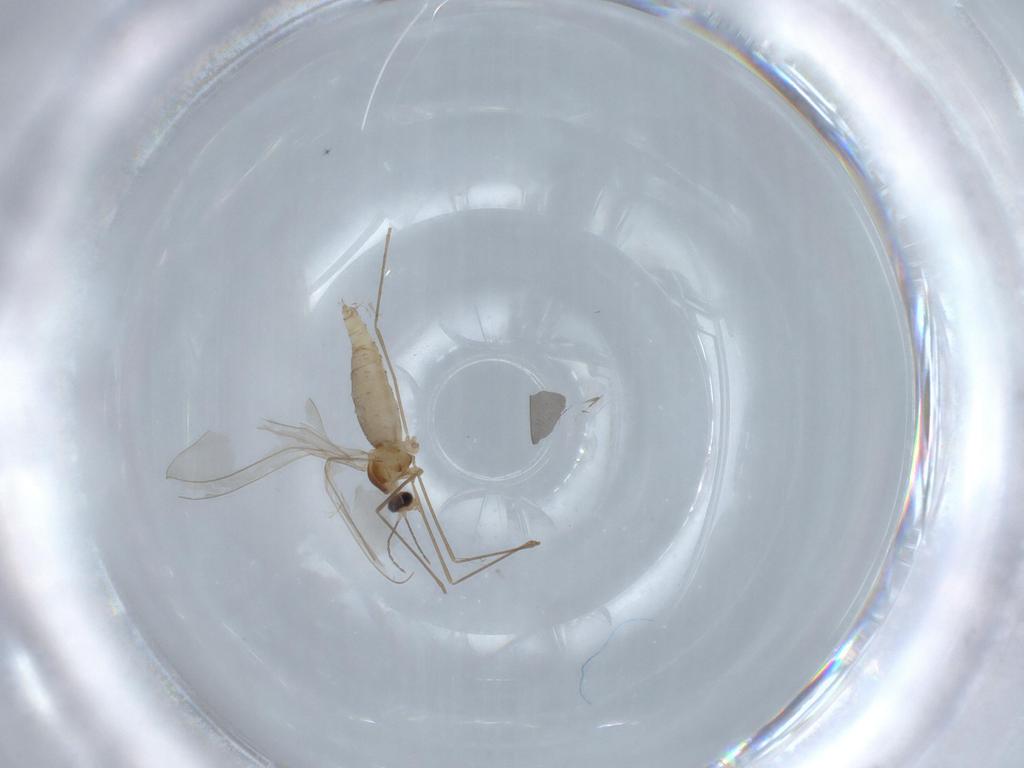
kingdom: Animalia
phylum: Arthropoda
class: Insecta
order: Diptera
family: Cecidomyiidae
